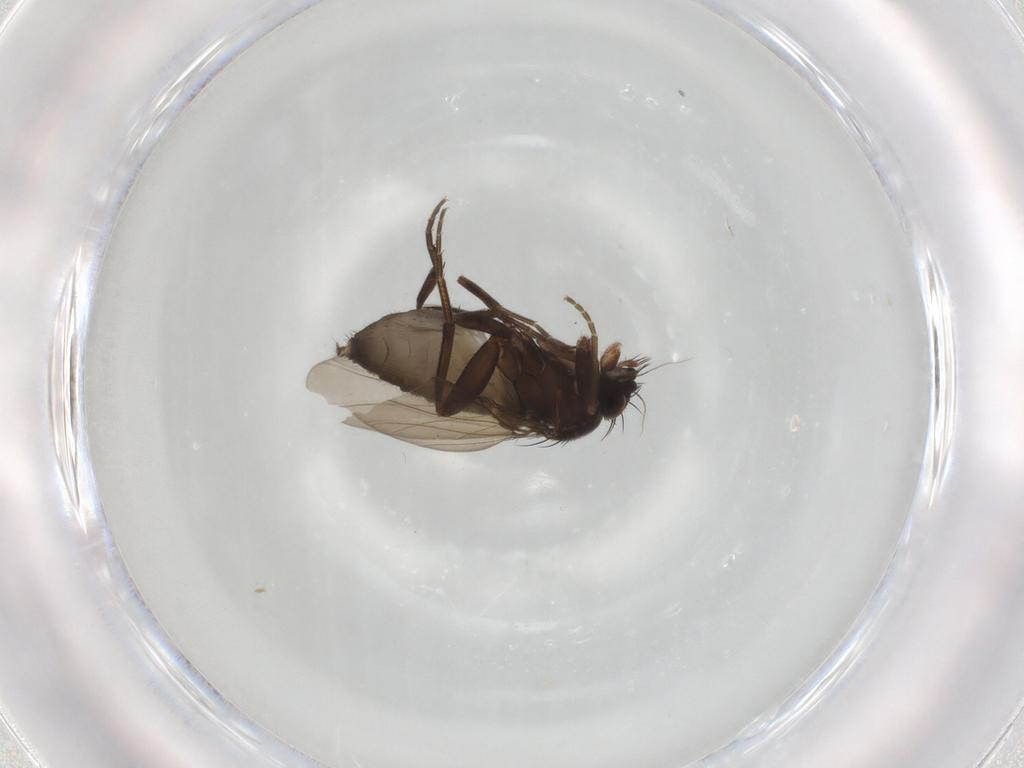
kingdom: Animalia
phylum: Arthropoda
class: Insecta
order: Diptera
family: Phoridae
